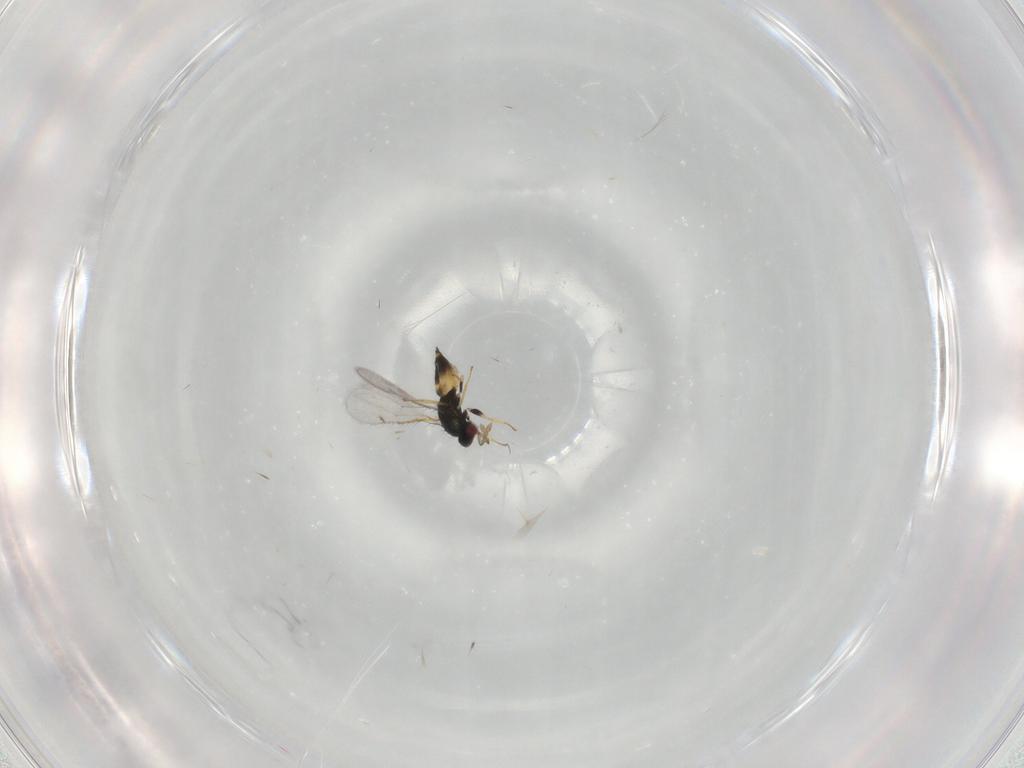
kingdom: Animalia
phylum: Arthropoda
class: Insecta
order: Hymenoptera
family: Eulophidae
